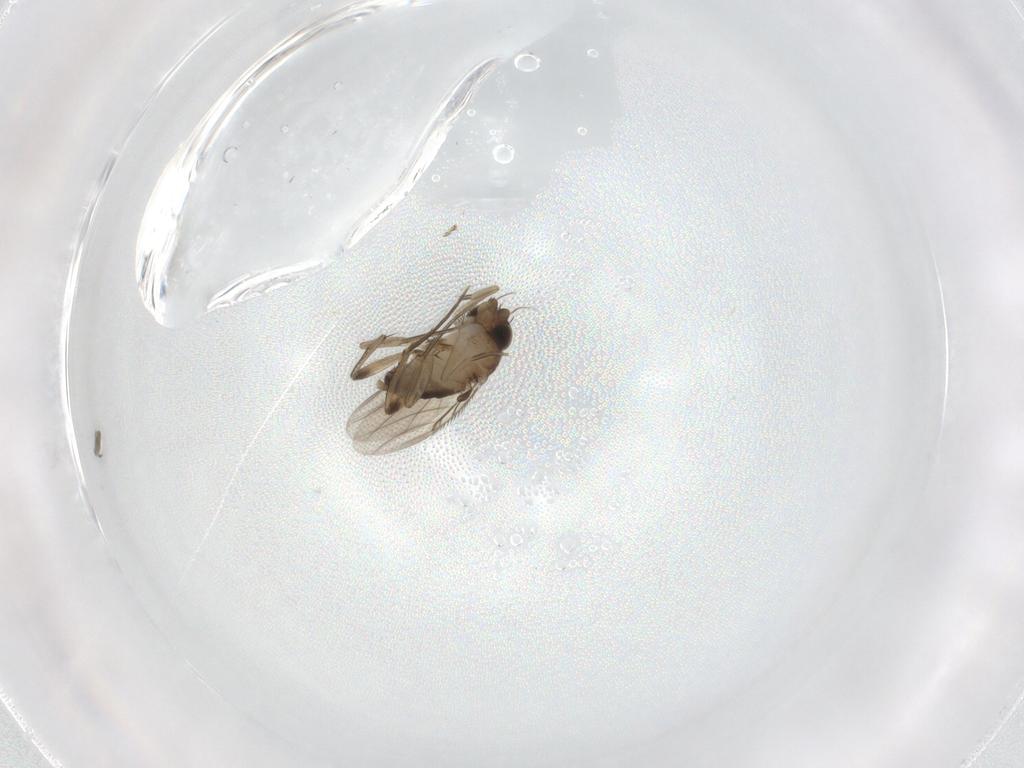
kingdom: Animalia
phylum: Arthropoda
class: Insecta
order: Diptera
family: Phoridae
